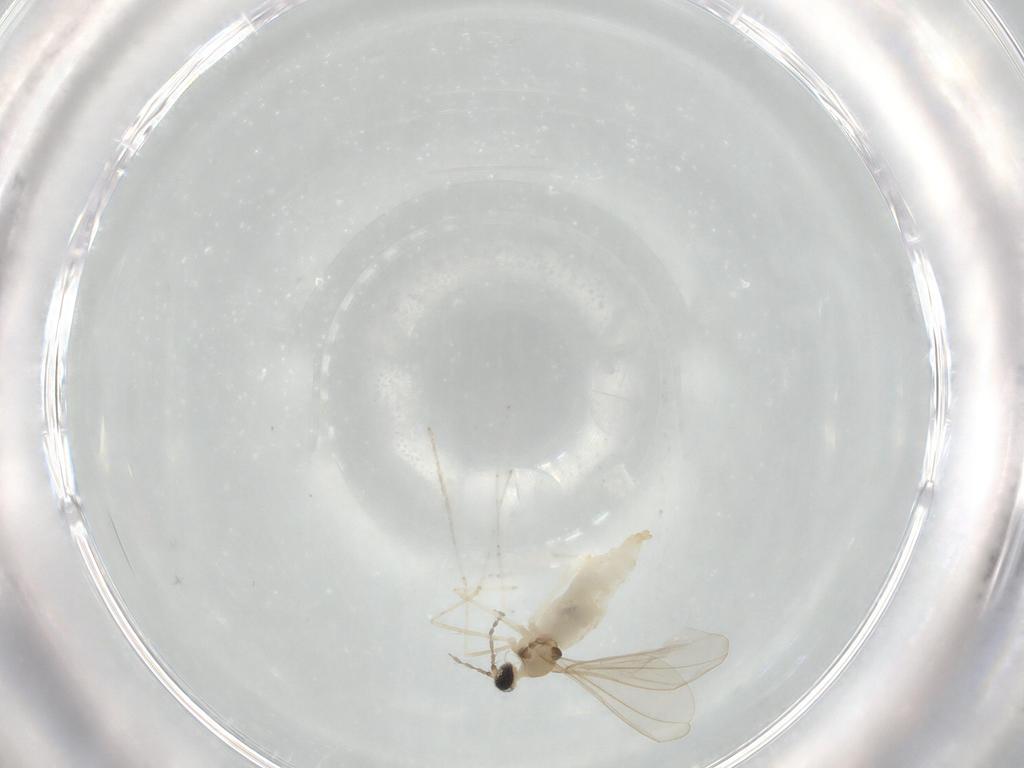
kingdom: Animalia
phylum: Arthropoda
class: Insecta
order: Diptera
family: Cecidomyiidae
